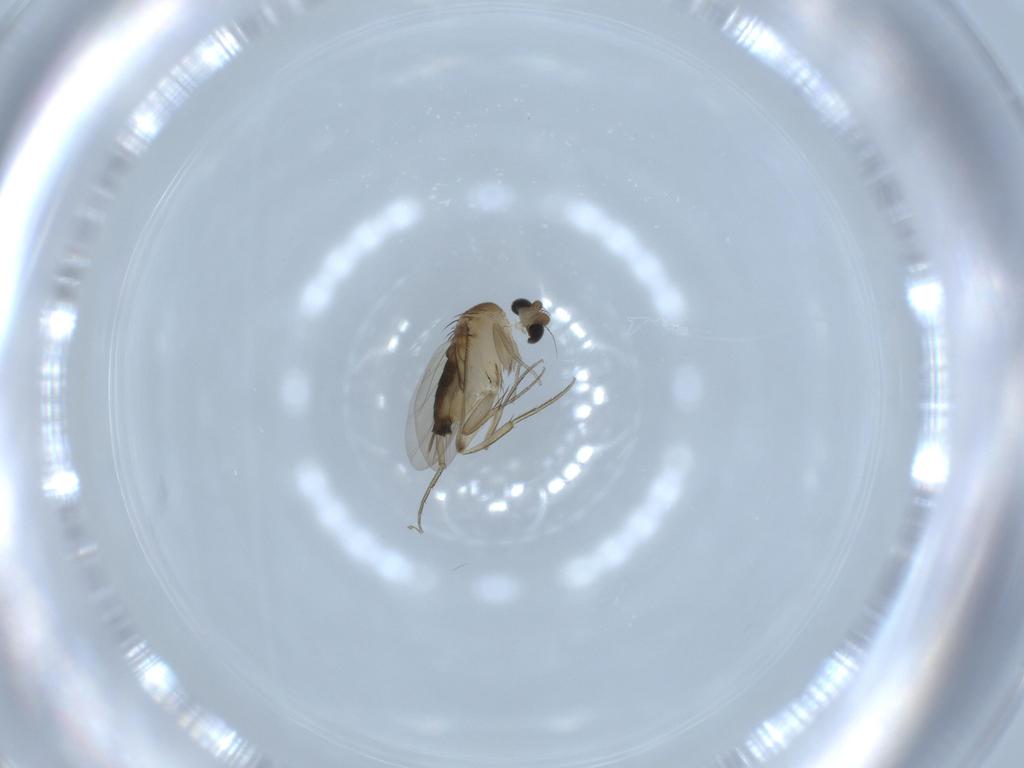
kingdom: Animalia
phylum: Arthropoda
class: Insecta
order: Diptera
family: Phoridae
